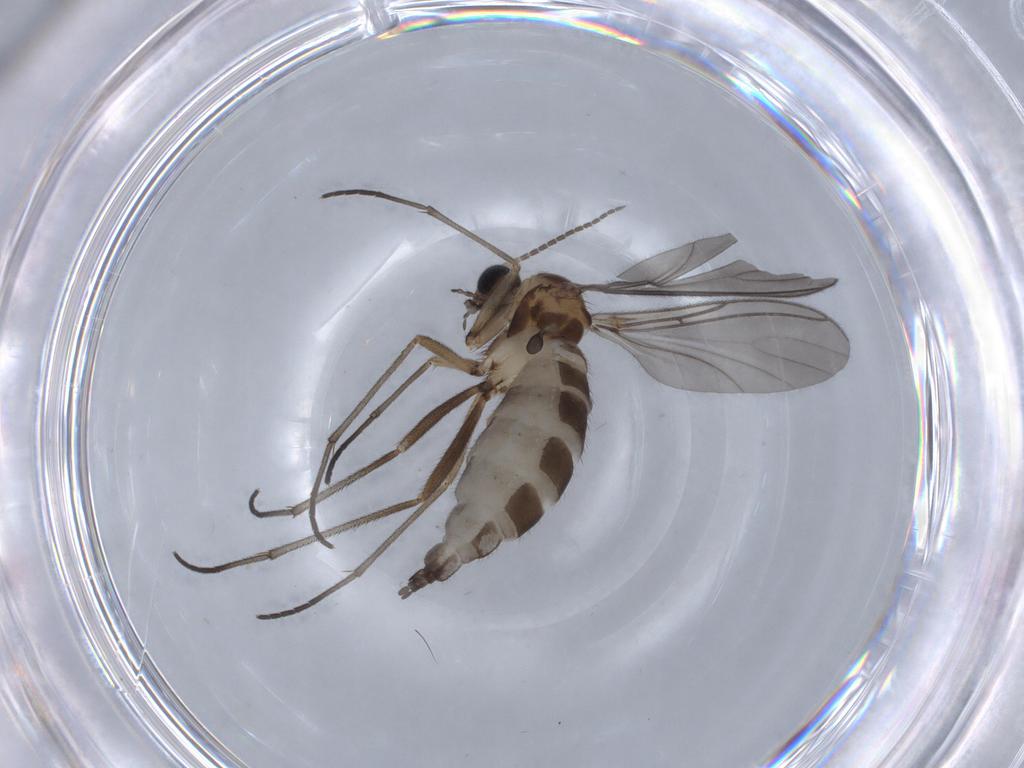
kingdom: Animalia
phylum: Arthropoda
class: Insecta
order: Diptera
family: Sciaridae
